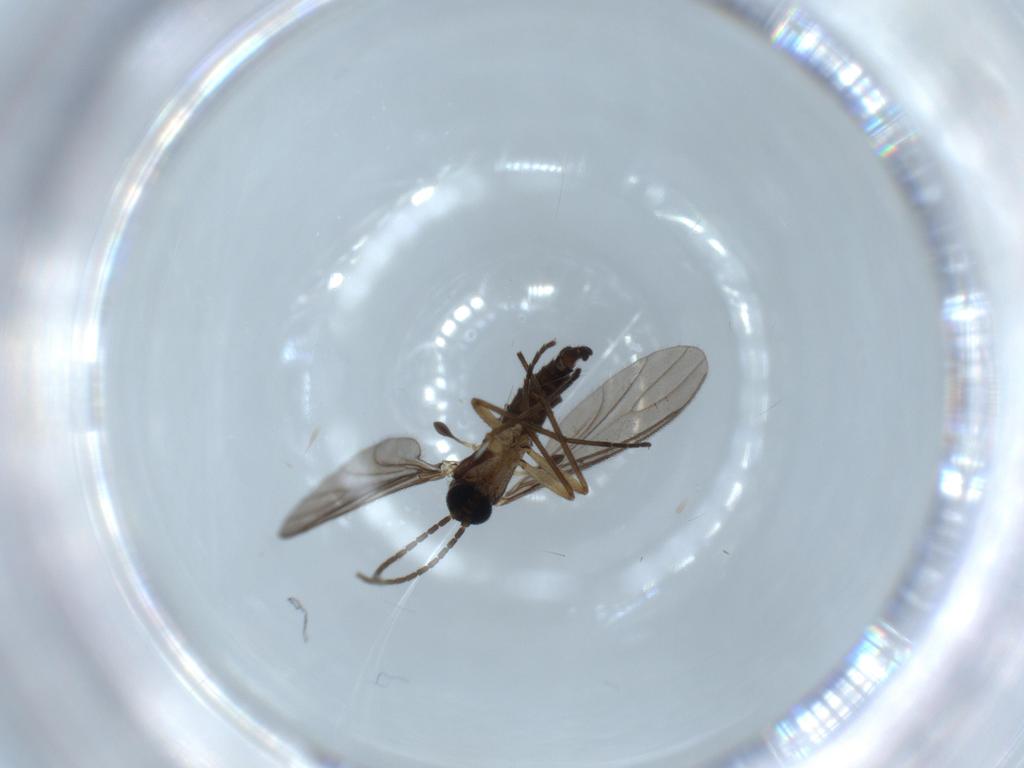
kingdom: Animalia
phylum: Arthropoda
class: Insecta
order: Diptera
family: Sciaridae
